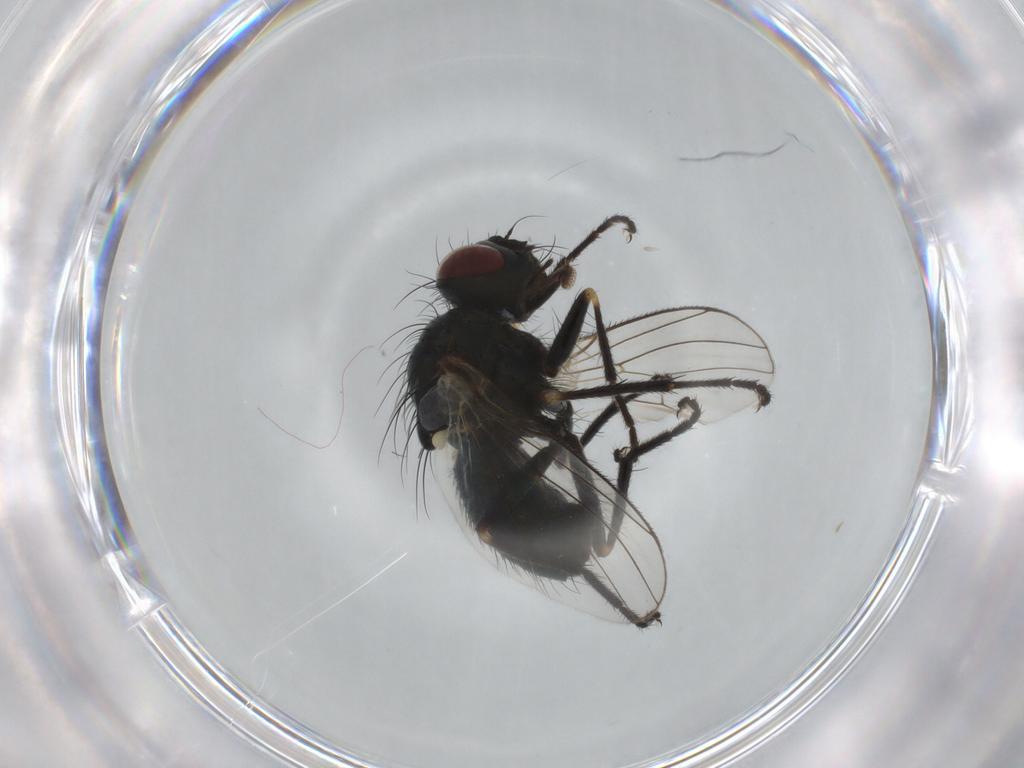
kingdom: Animalia
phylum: Arthropoda
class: Insecta
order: Diptera
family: Muscidae
